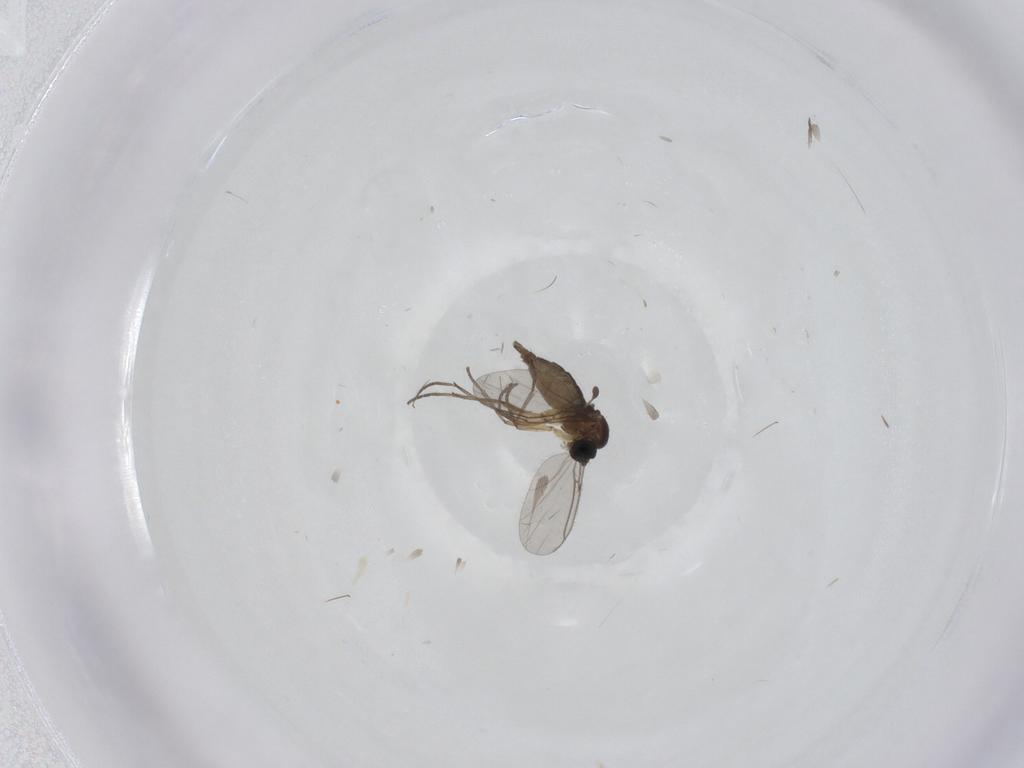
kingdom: Animalia
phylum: Arthropoda
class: Insecta
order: Diptera
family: Sciaridae
